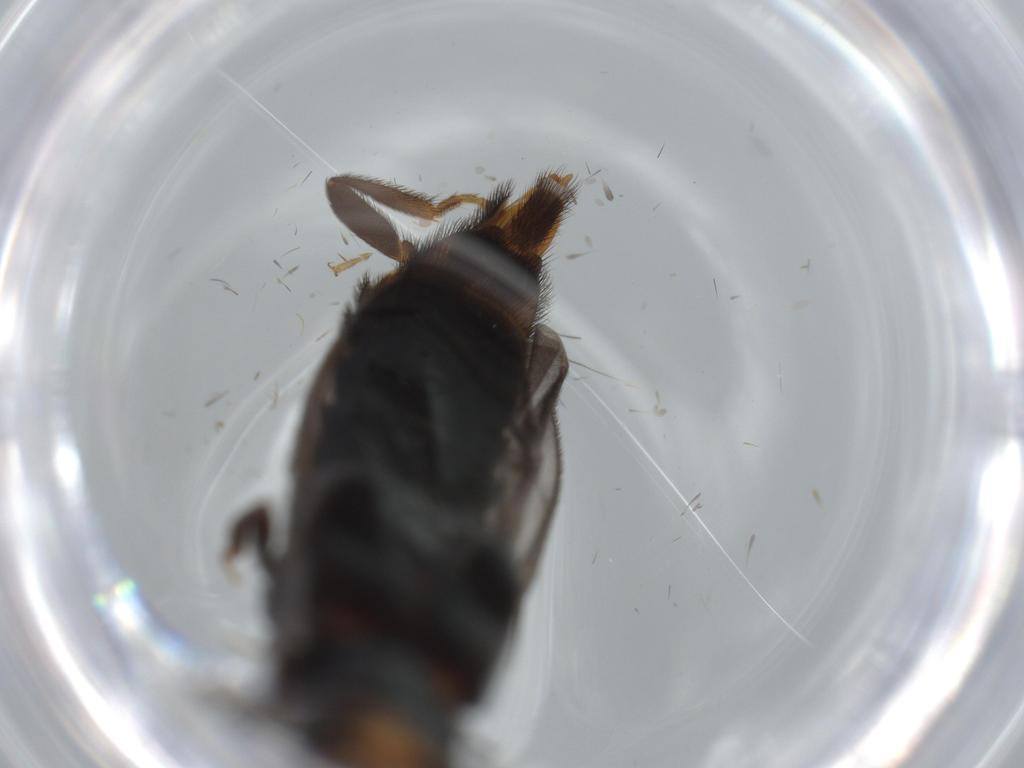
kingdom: Animalia
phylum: Arthropoda
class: Insecta
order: Coleoptera
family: Phengodidae
